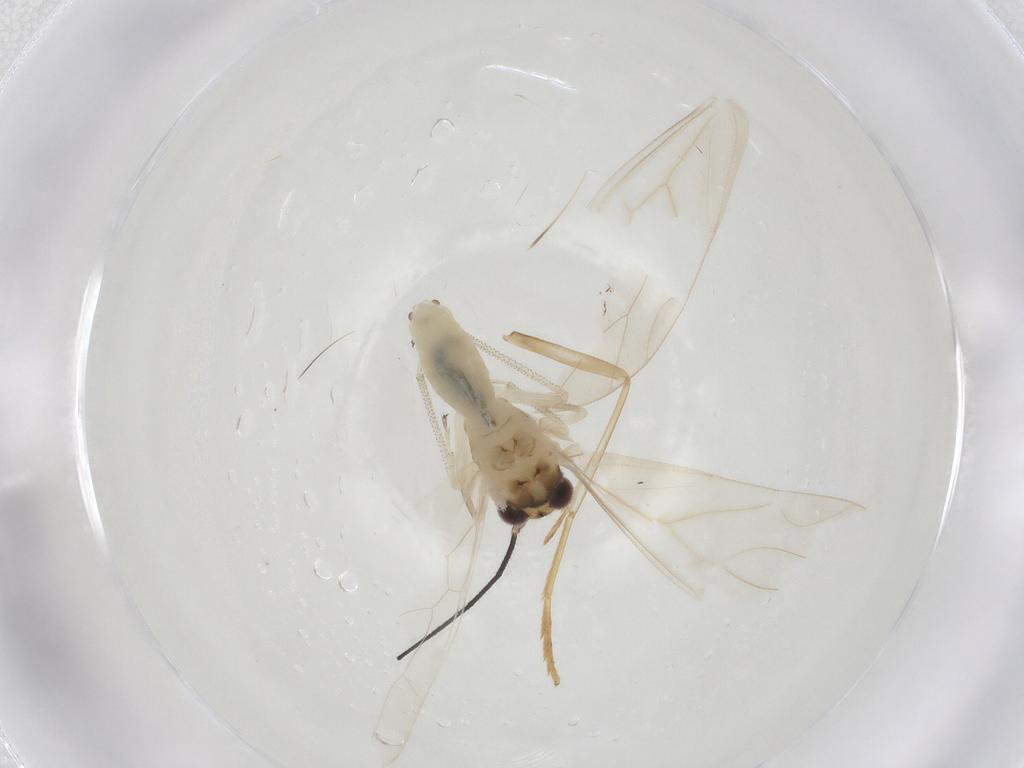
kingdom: Animalia
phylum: Arthropoda
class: Insecta
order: Psocodea
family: Caeciliusidae
